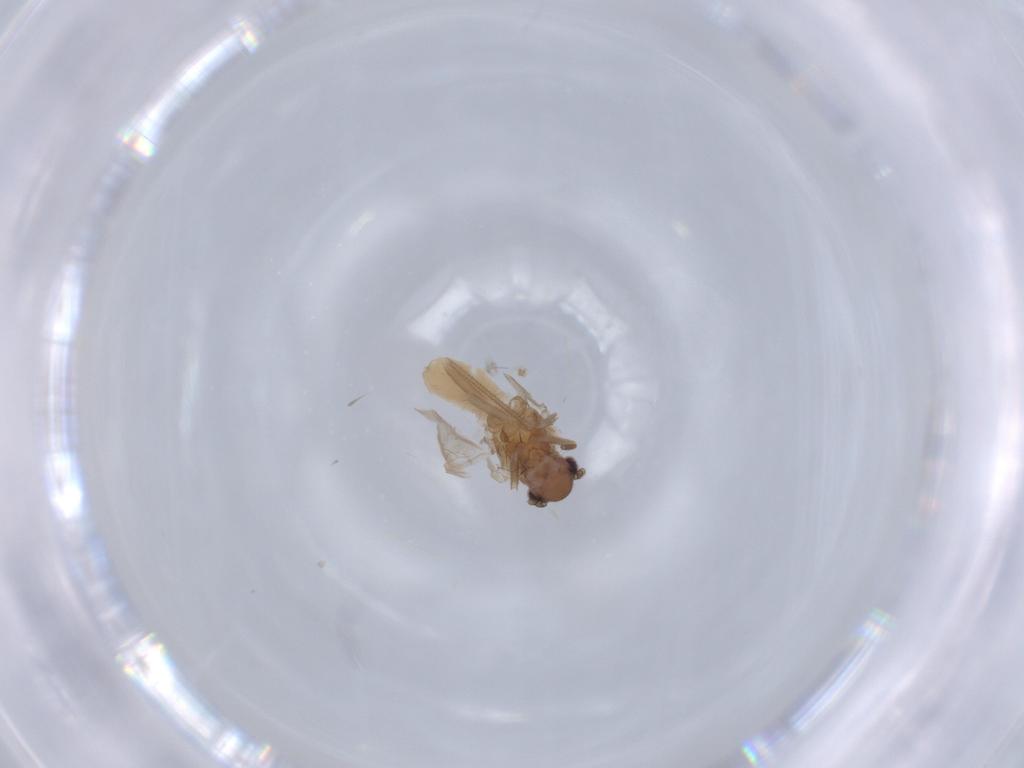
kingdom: Animalia
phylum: Arthropoda
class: Insecta
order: Psocodea
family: Caeciliusidae
